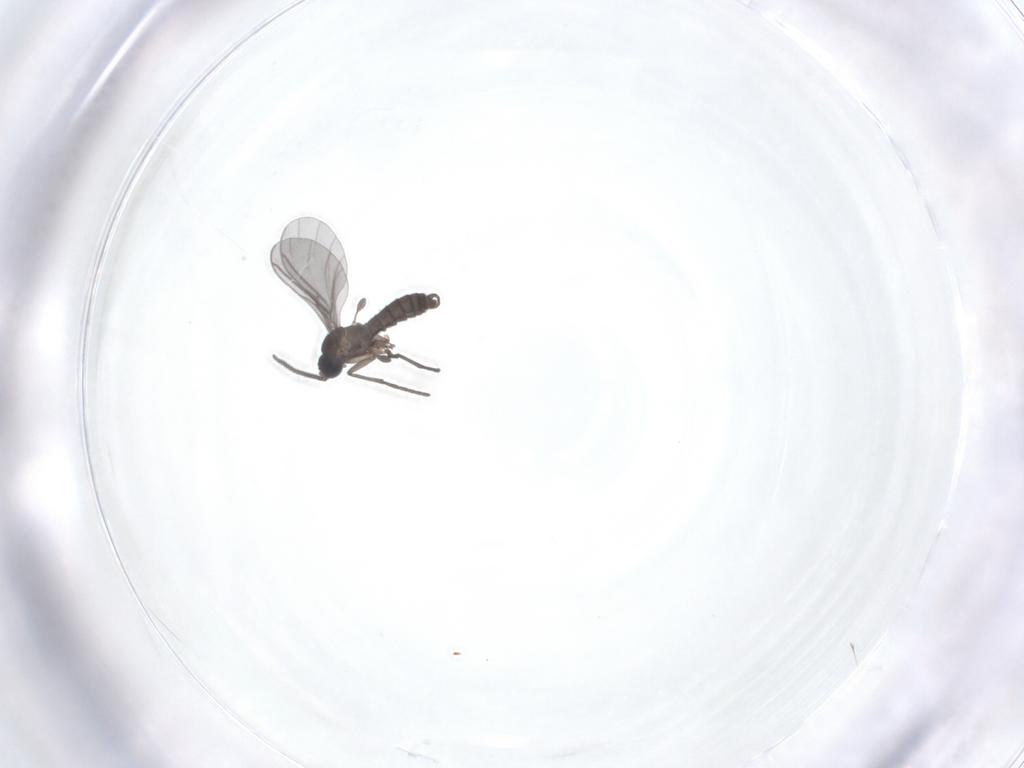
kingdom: Animalia
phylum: Arthropoda
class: Insecta
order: Diptera
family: Sciaridae
